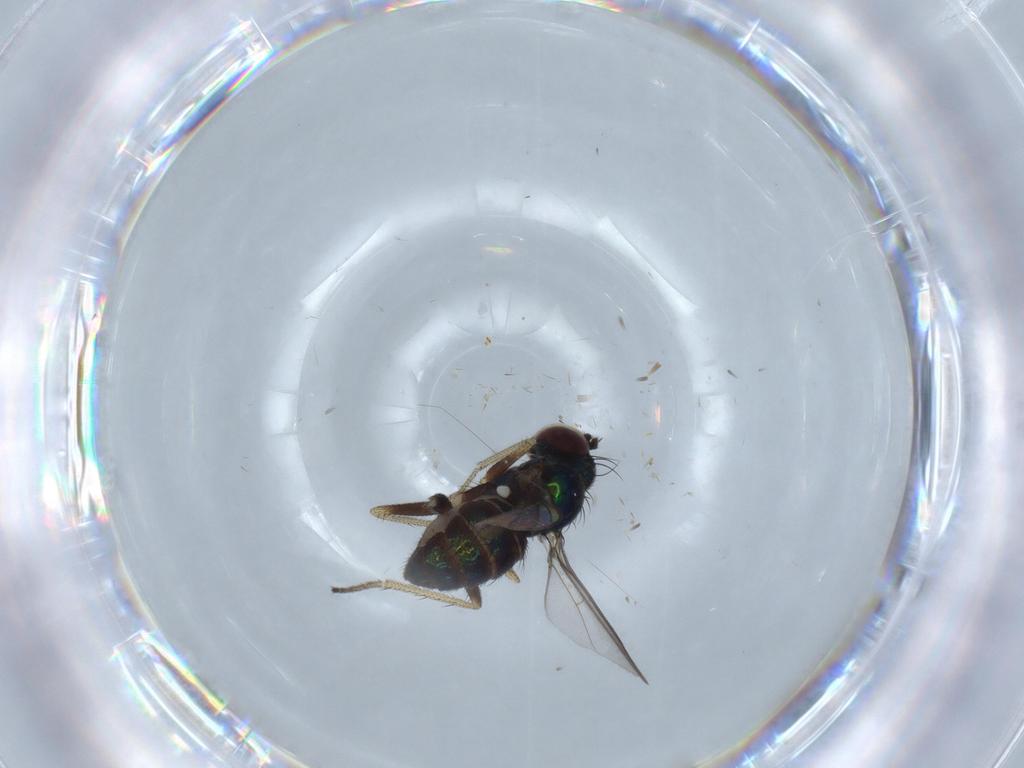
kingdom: Animalia
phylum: Arthropoda
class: Insecta
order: Diptera
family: Dolichopodidae
